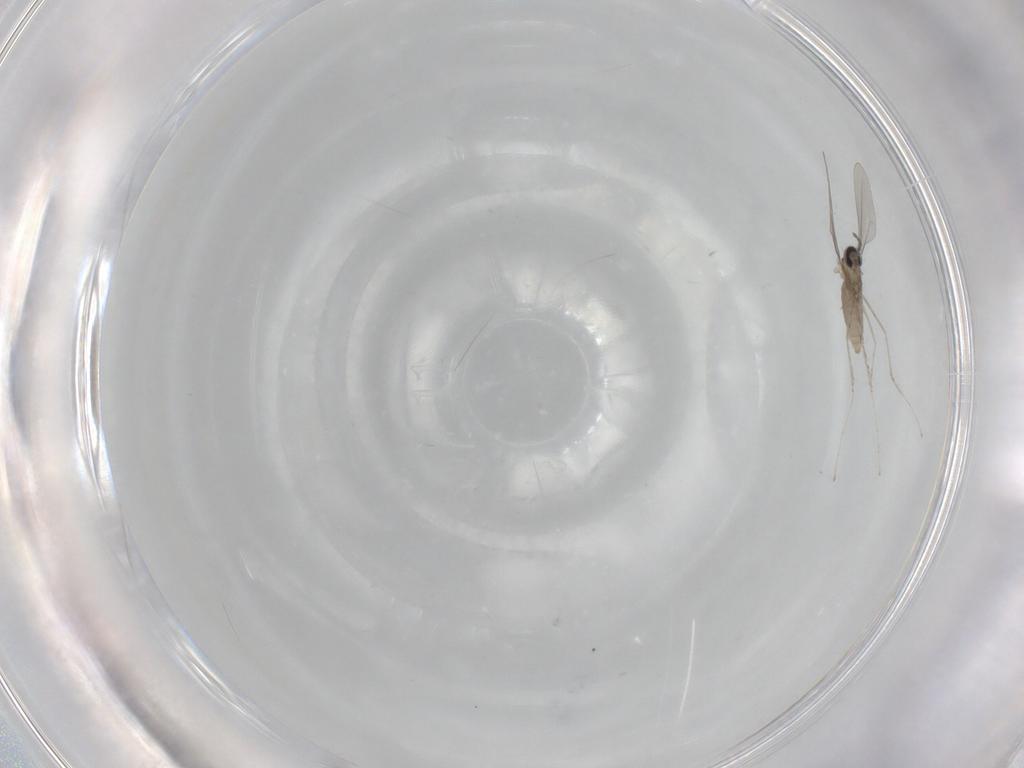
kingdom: Animalia
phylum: Arthropoda
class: Insecta
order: Diptera
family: Cecidomyiidae
